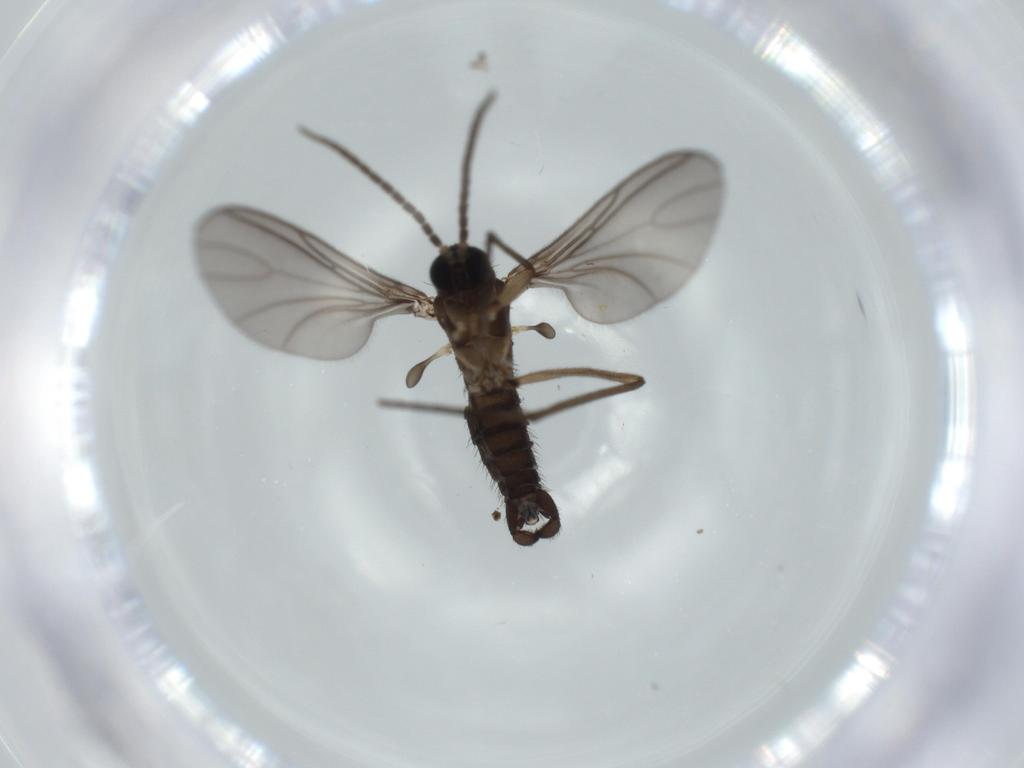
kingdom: Animalia
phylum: Arthropoda
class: Insecta
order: Diptera
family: Sciaridae
